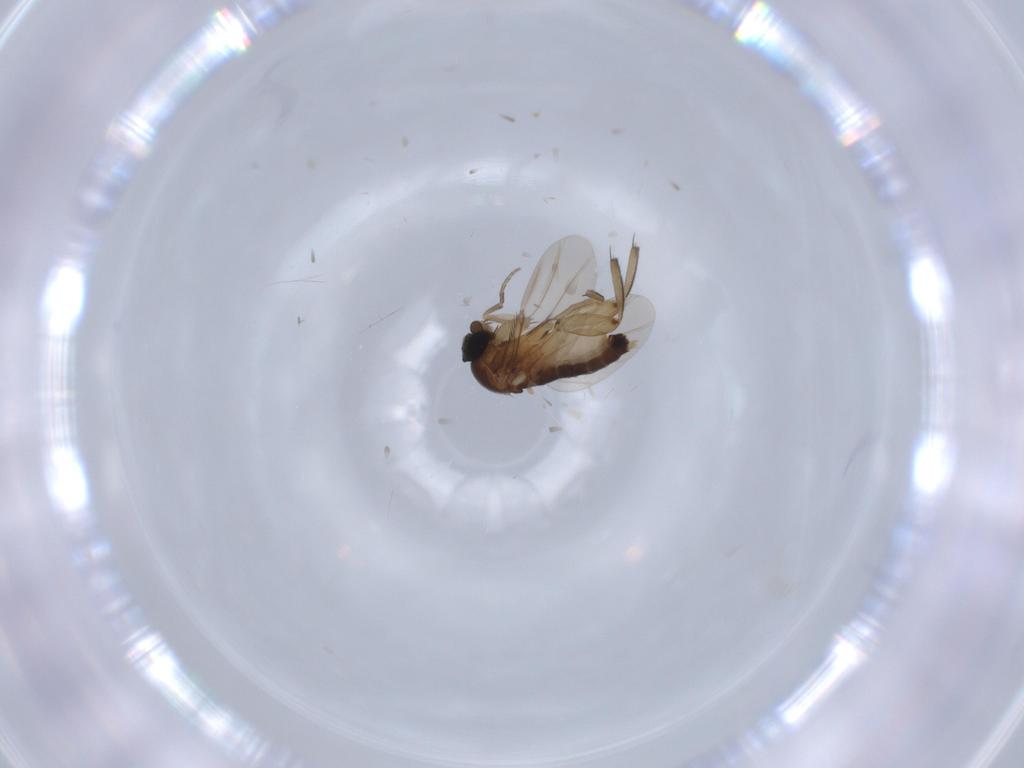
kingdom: Animalia
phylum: Arthropoda
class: Insecta
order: Diptera
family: Phoridae
